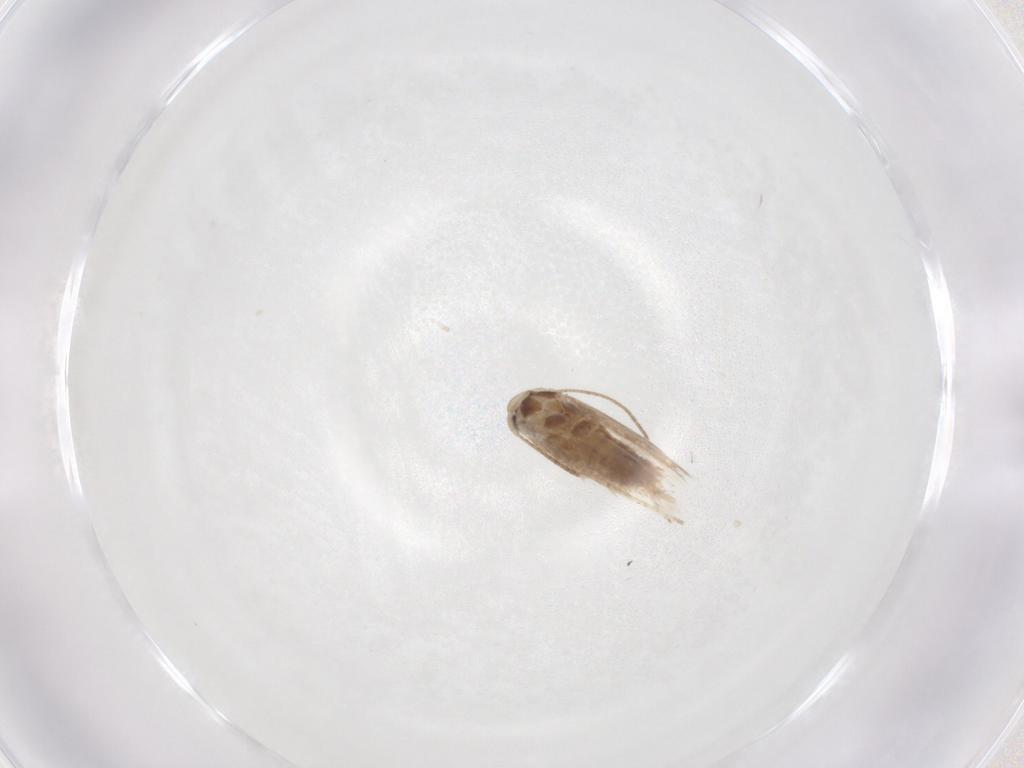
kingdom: Animalia
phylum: Arthropoda
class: Insecta
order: Lepidoptera
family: Depressariidae
